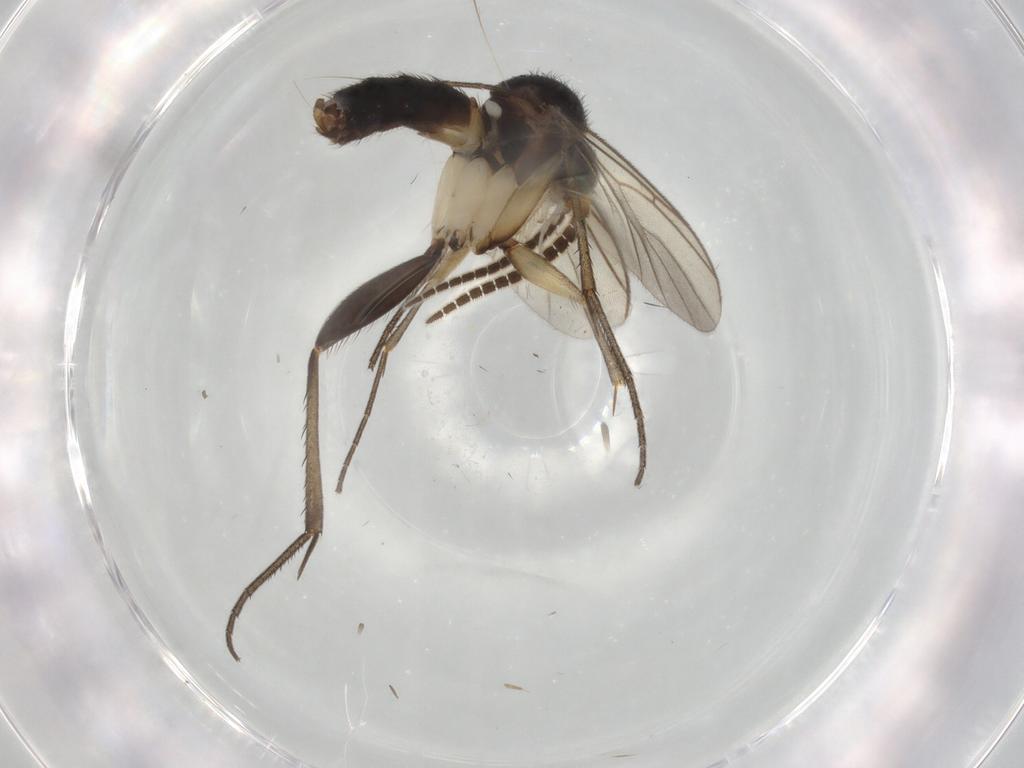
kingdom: Animalia
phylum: Arthropoda
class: Insecta
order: Diptera
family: Mycetophilidae
